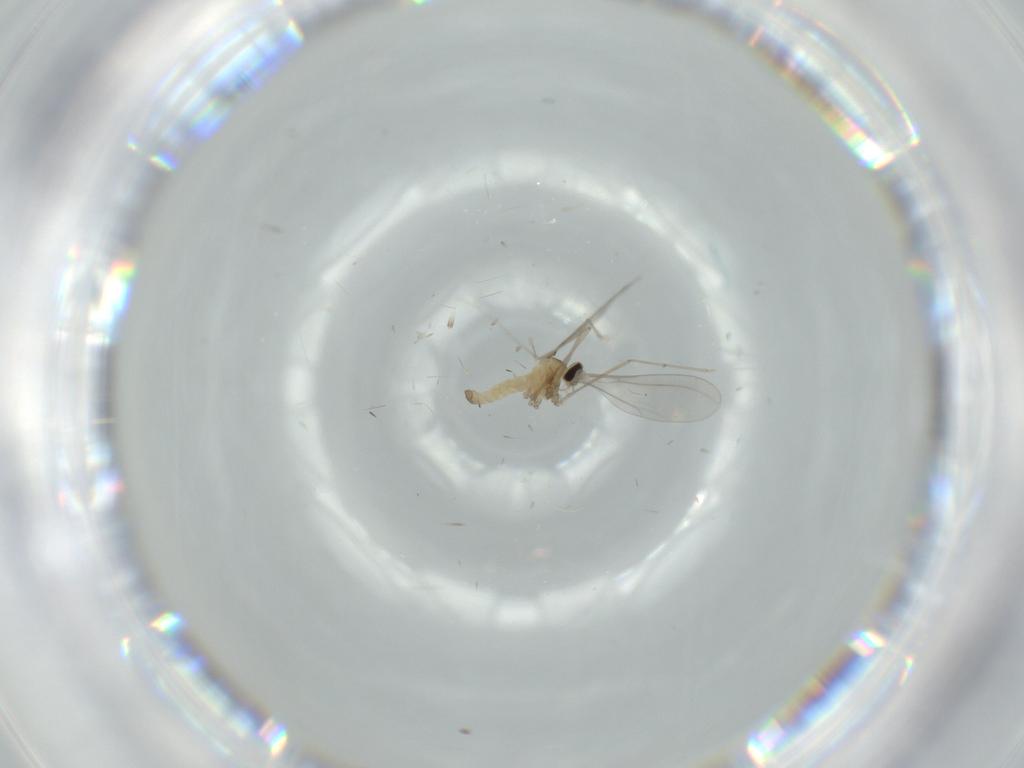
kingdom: Animalia
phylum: Arthropoda
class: Insecta
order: Diptera
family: Cecidomyiidae
